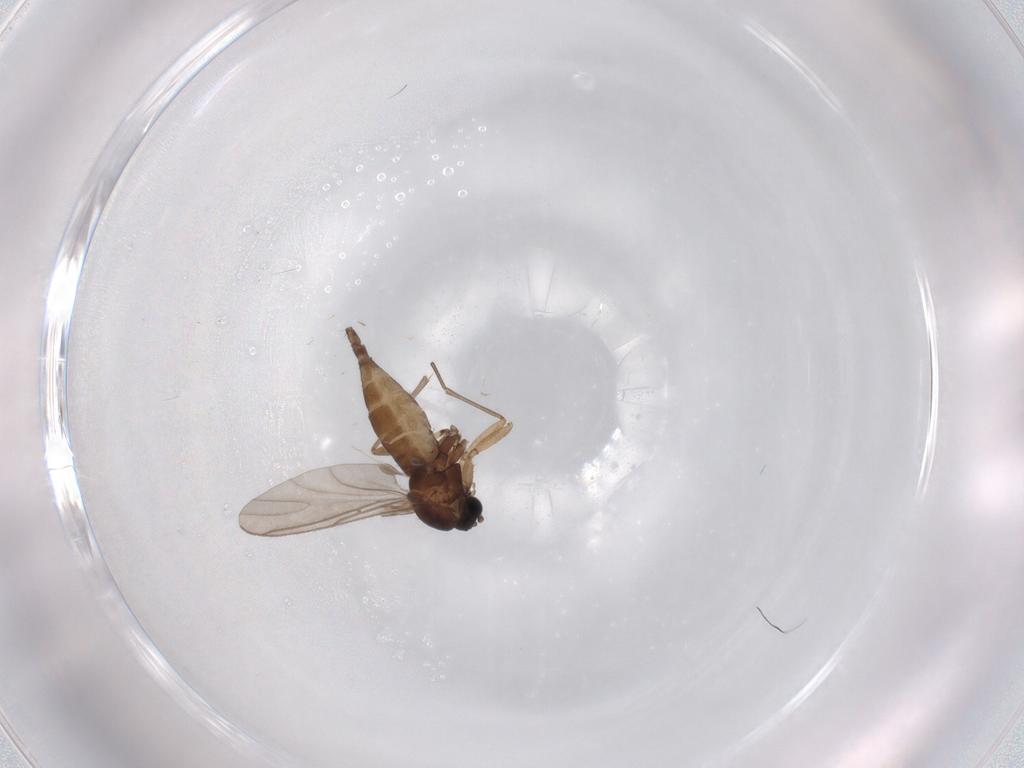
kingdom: Animalia
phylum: Arthropoda
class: Insecta
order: Diptera
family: Sciaridae
